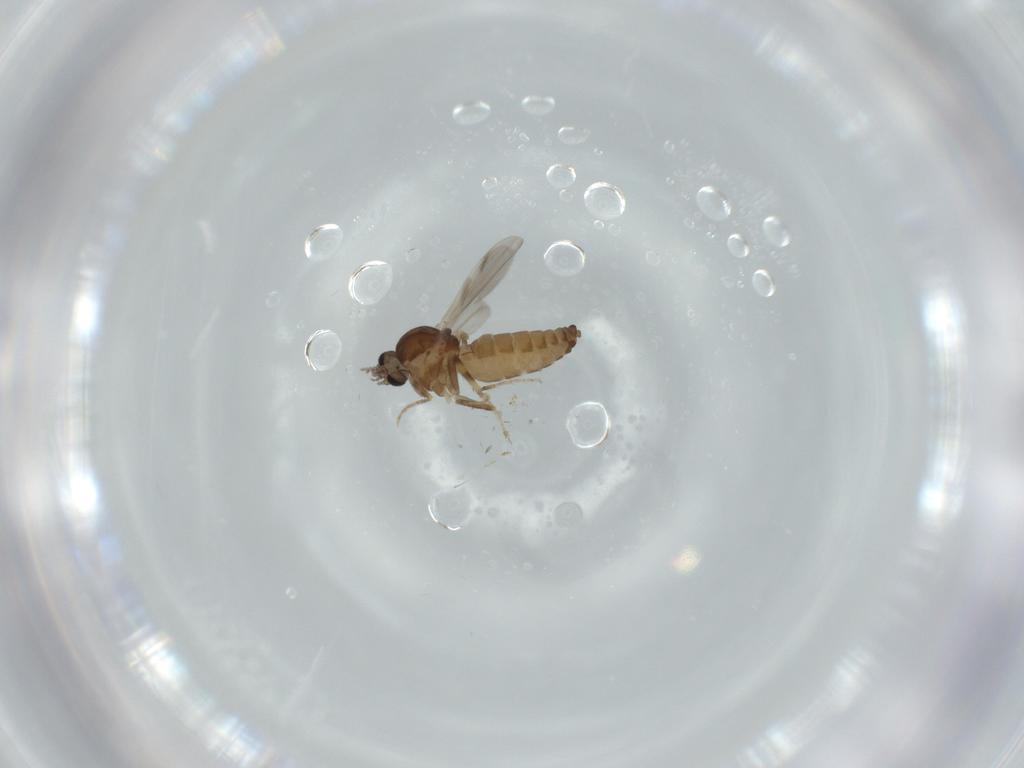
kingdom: Animalia
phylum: Arthropoda
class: Insecta
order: Diptera
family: Ceratopogonidae
